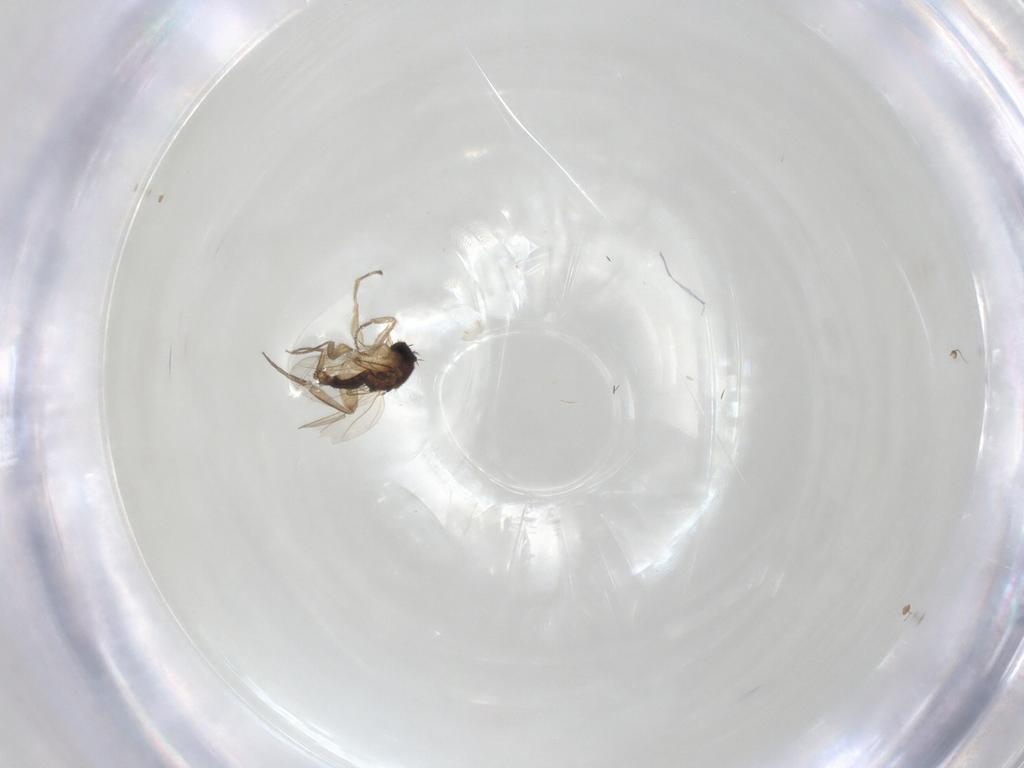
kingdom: Animalia
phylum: Arthropoda
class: Insecta
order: Diptera
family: Phoridae
